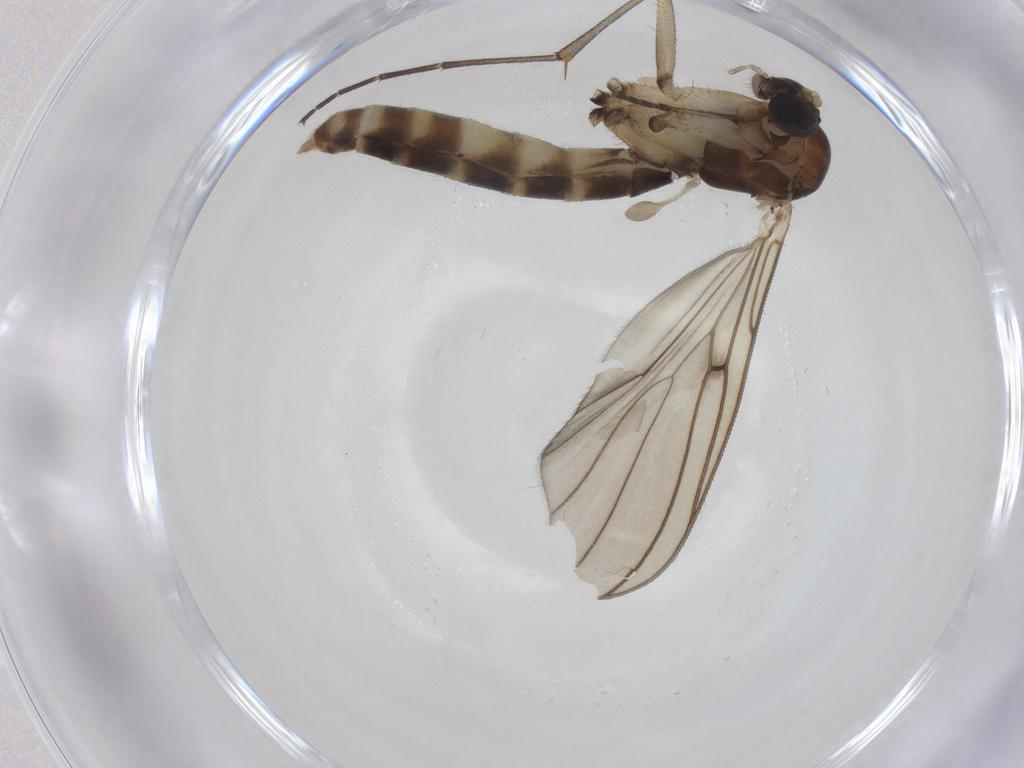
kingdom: Animalia
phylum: Arthropoda
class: Insecta
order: Diptera
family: Mycetophilidae
